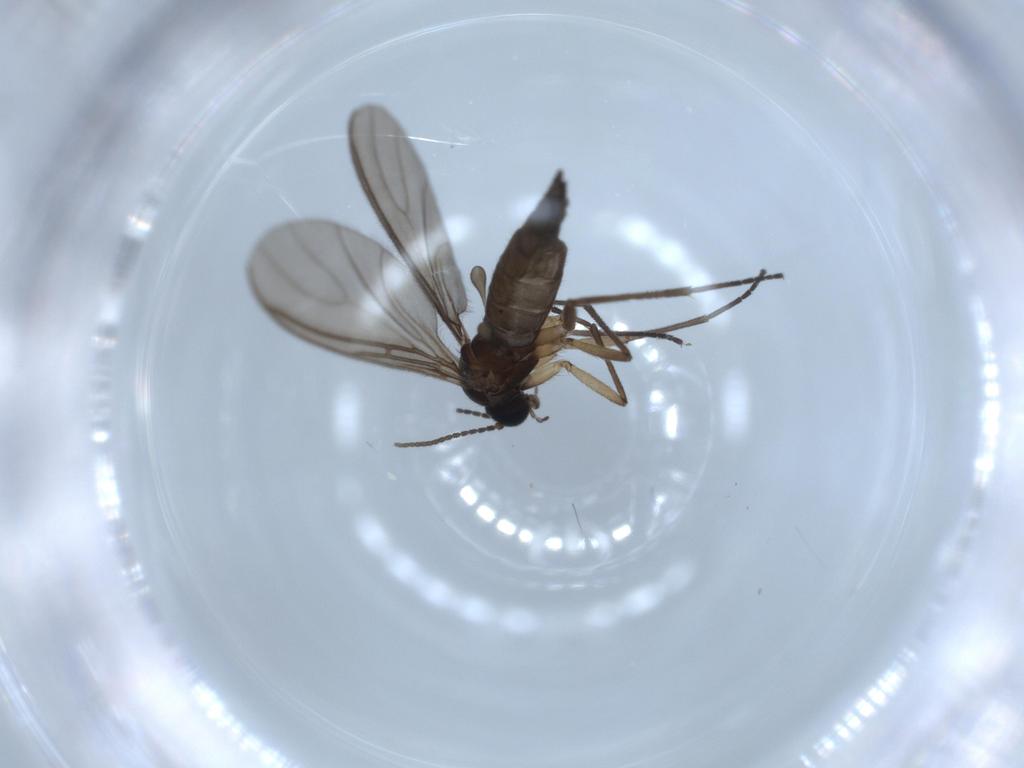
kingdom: Animalia
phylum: Arthropoda
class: Insecta
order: Diptera
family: Sciaridae
